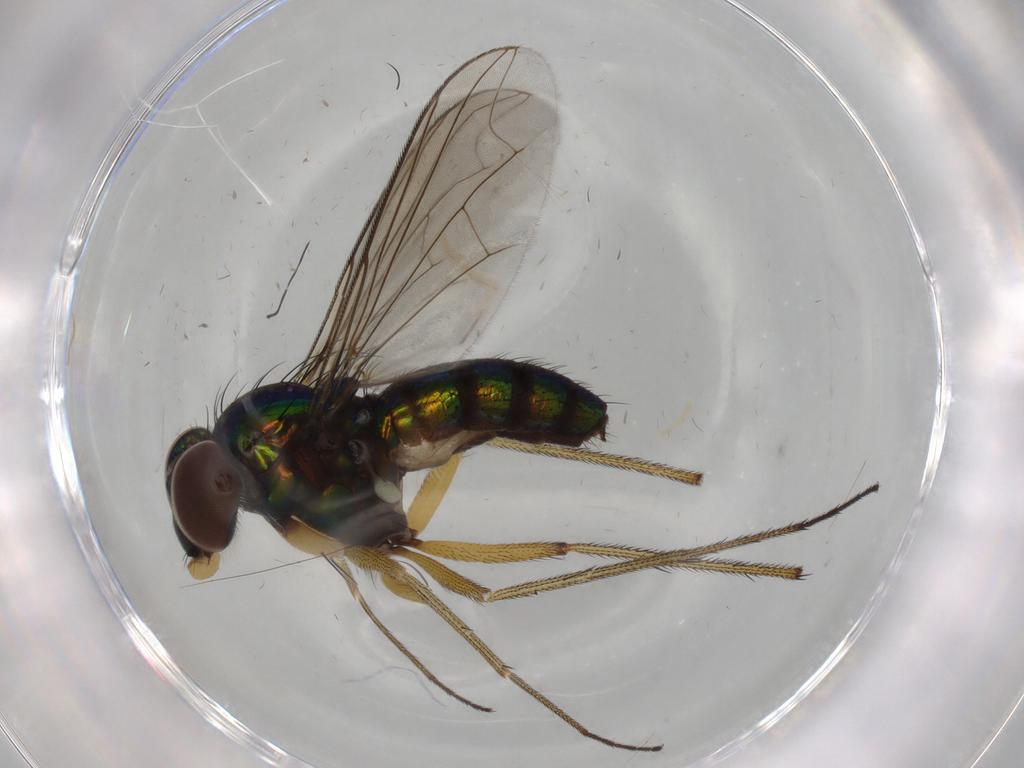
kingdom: Animalia
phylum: Arthropoda
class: Insecta
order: Diptera
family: Dolichopodidae
